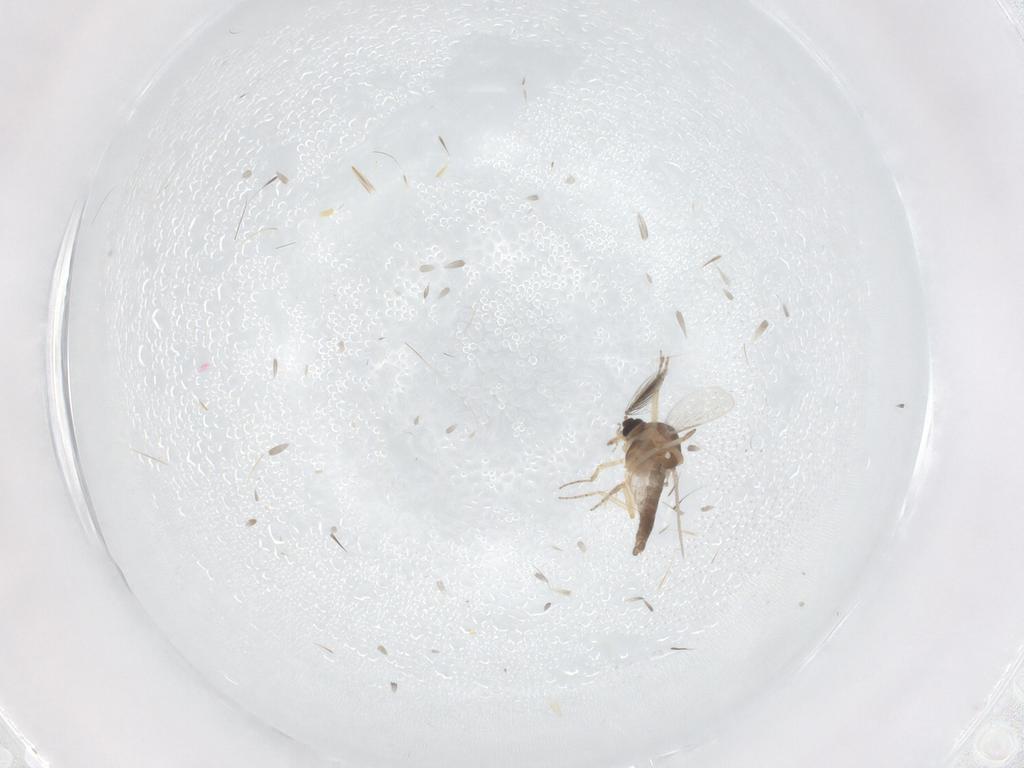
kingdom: Animalia
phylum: Arthropoda
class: Insecta
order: Diptera
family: Ceratopogonidae
